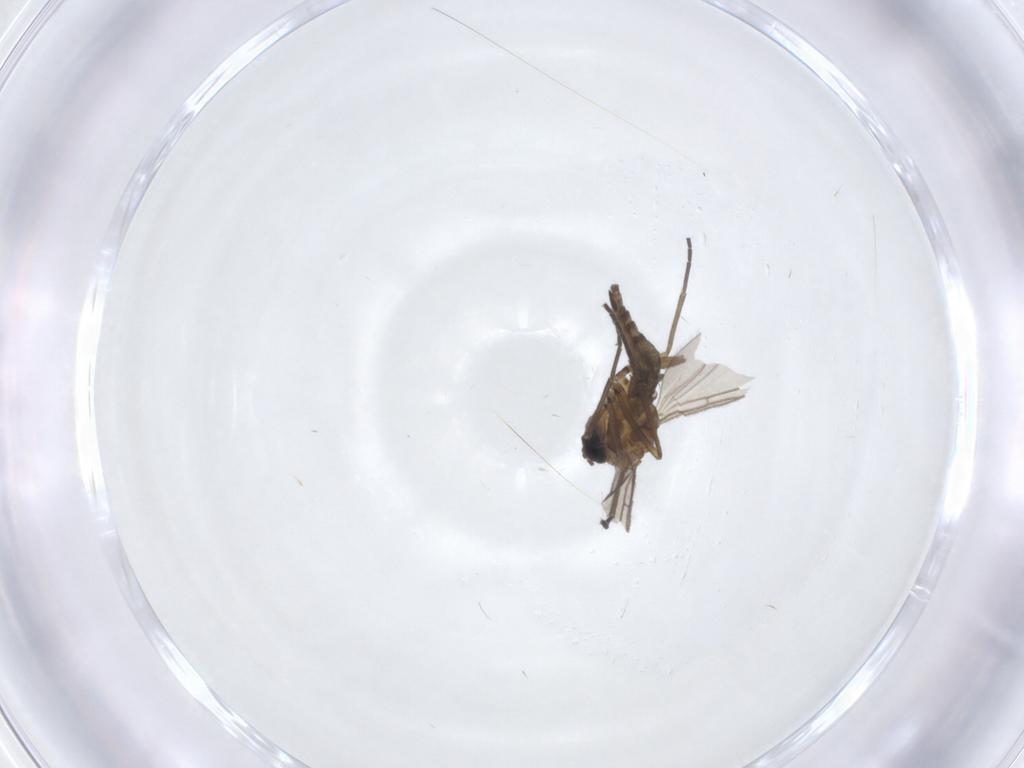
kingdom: Animalia
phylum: Arthropoda
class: Insecta
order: Diptera
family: Sciaridae
